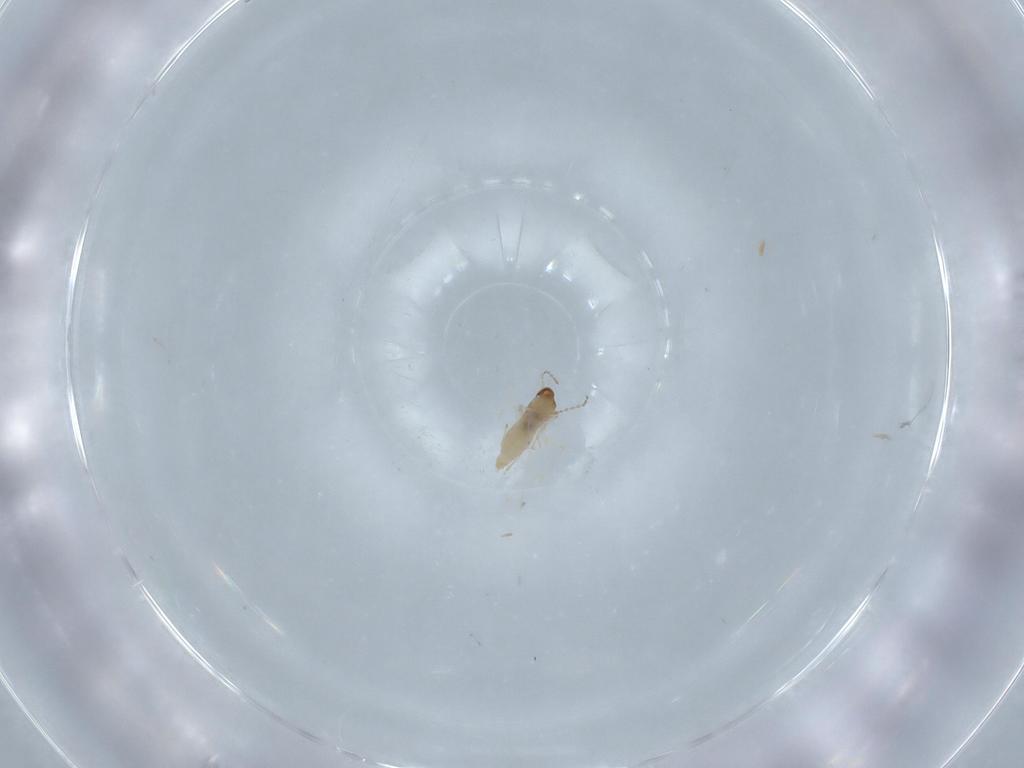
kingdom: Animalia
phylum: Arthropoda
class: Insecta
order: Diptera
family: Cecidomyiidae
